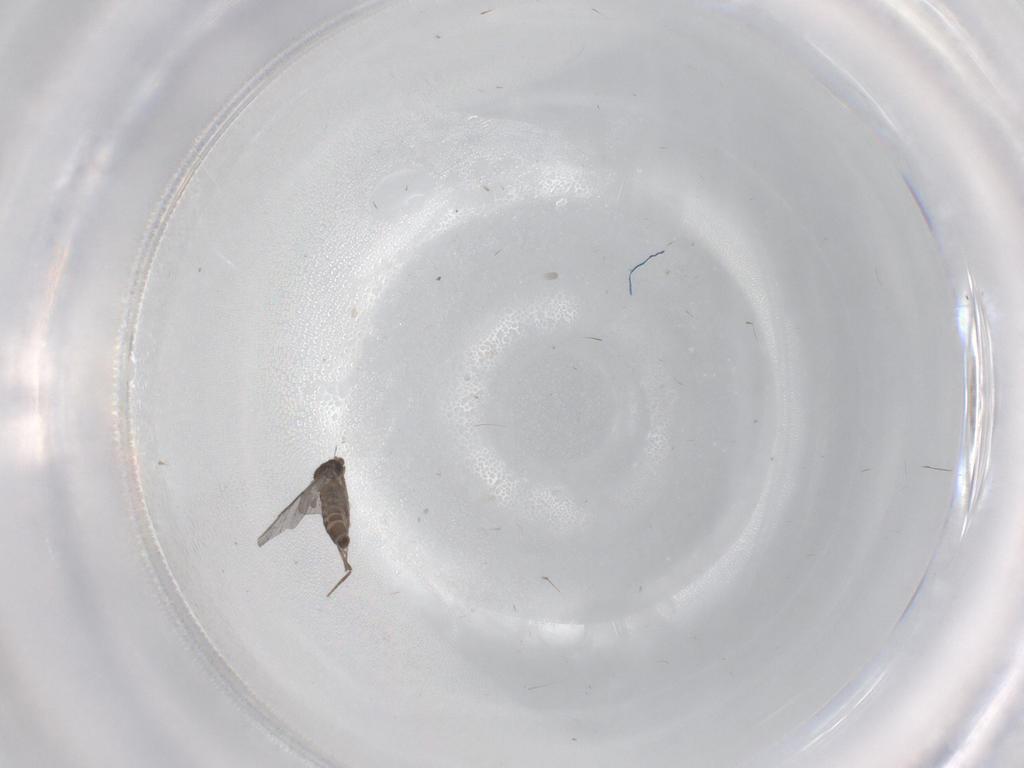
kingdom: Animalia
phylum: Arthropoda
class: Insecta
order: Diptera
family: Phoridae
